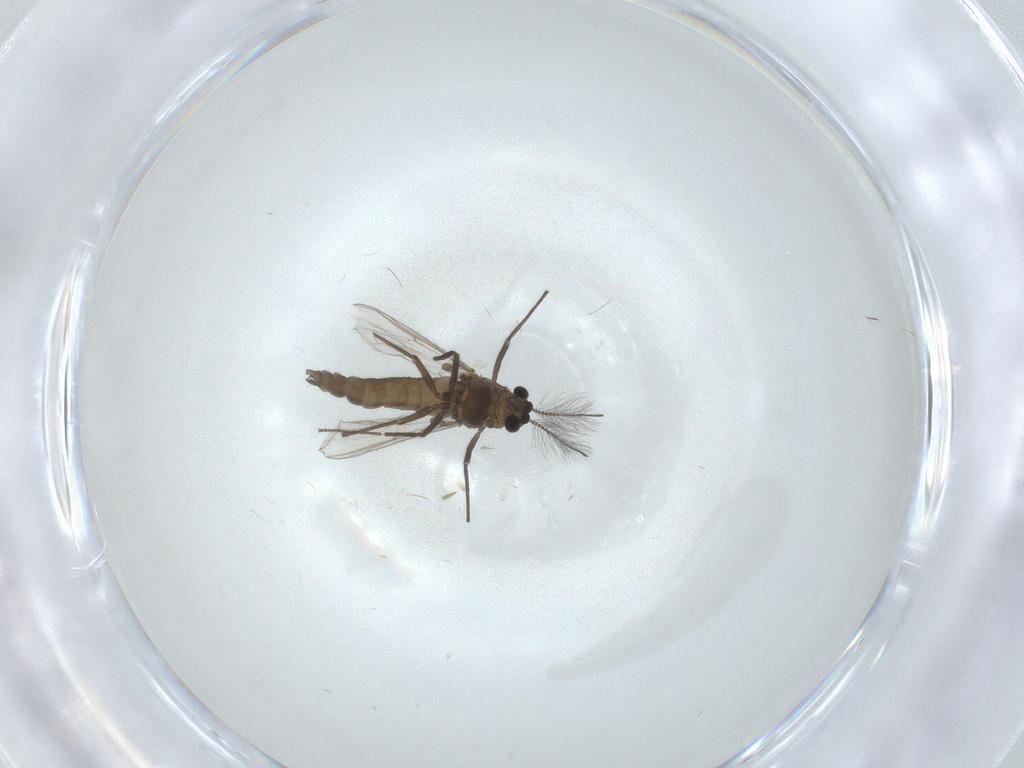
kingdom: Animalia
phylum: Arthropoda
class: Insecta
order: Diptera
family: Chironomidae
